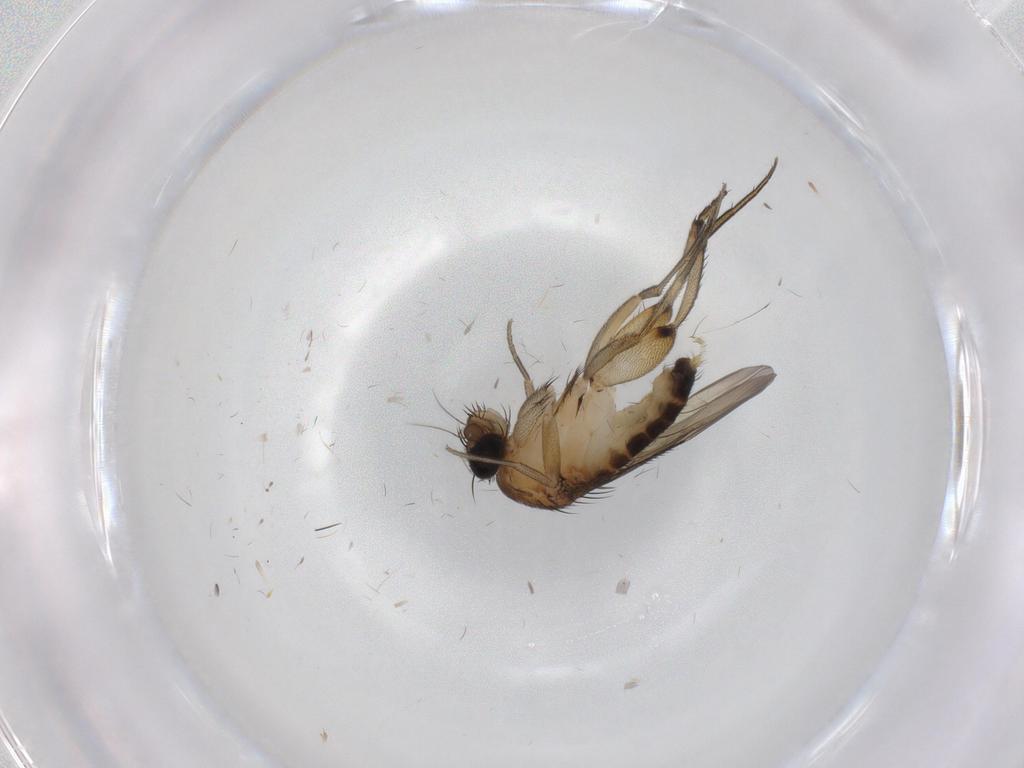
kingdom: Animalia
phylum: Arthropoda
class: Insecta
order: Diptera
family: Phoridae
